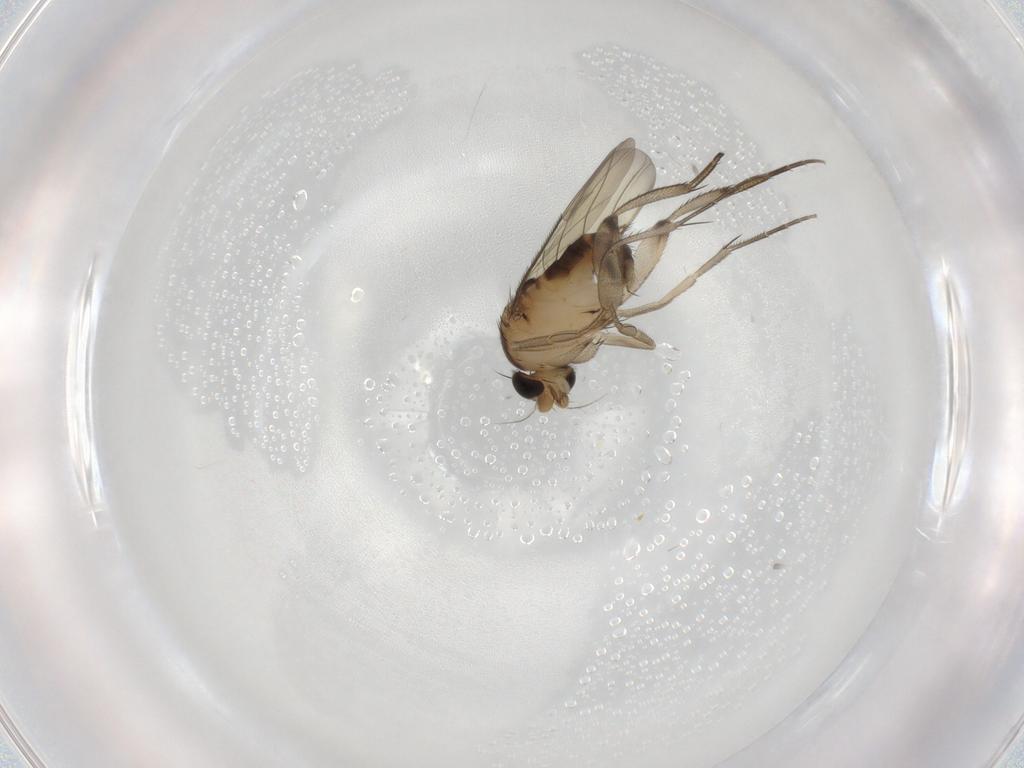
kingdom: Animalia
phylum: Arthropoda
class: Insecta
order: Diptera
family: Phoridae
